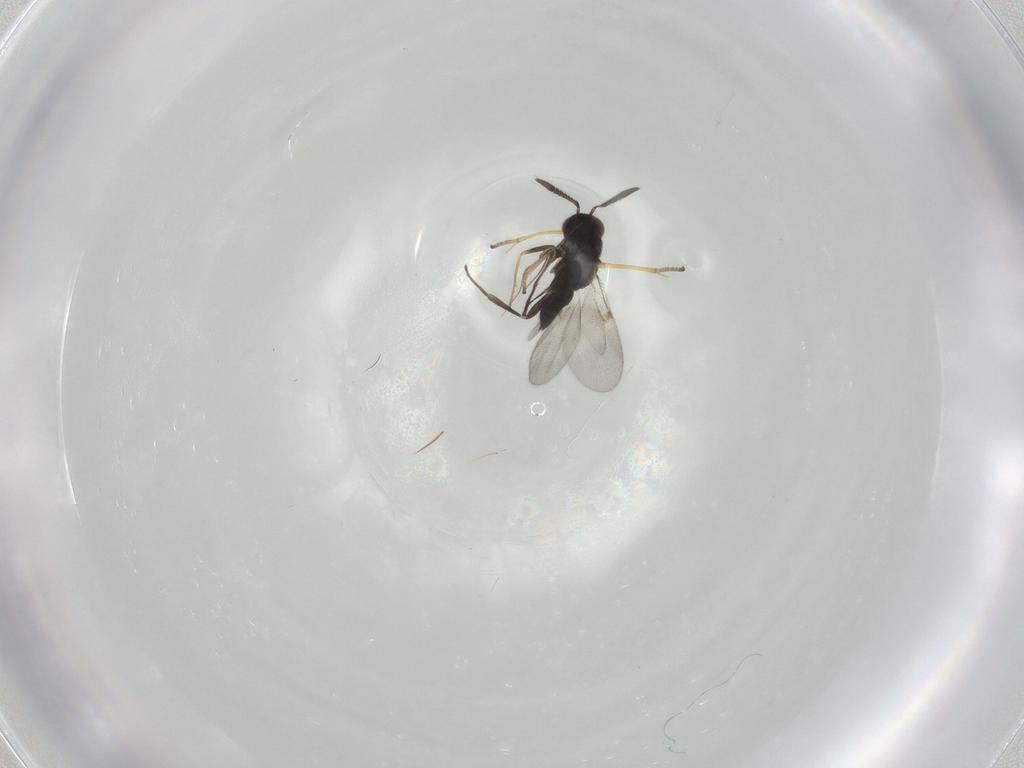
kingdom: Animalia
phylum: Arthropoda
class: Insecta
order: Hymenoptera
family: Encyrtidae
